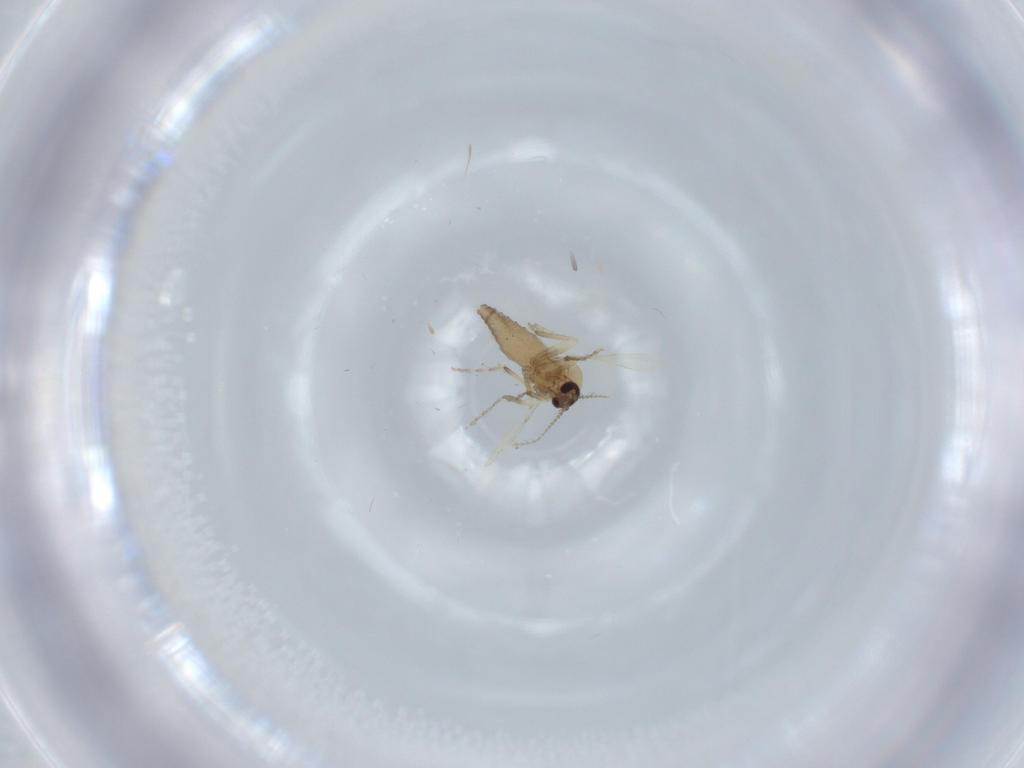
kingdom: Animalia
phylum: Arthropoda
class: Insecta
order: Diptera
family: Ceratopogonidae
